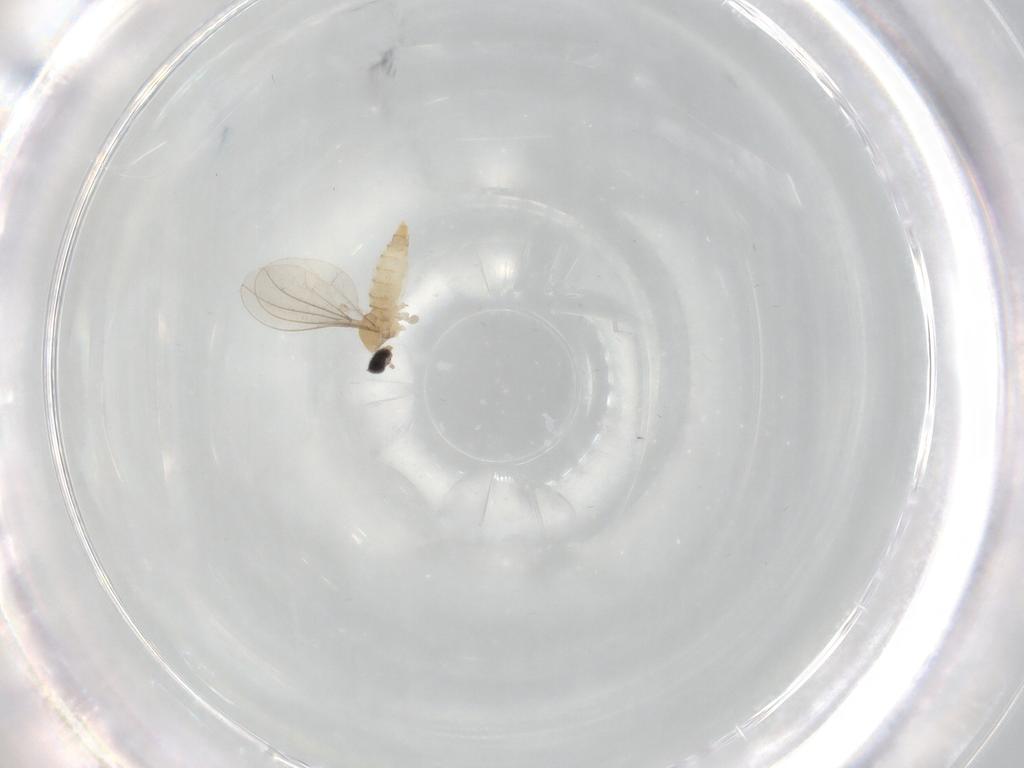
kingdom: Animalia
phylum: Arthropoda
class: Insecta
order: Diptera
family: Cecidomyiidae
